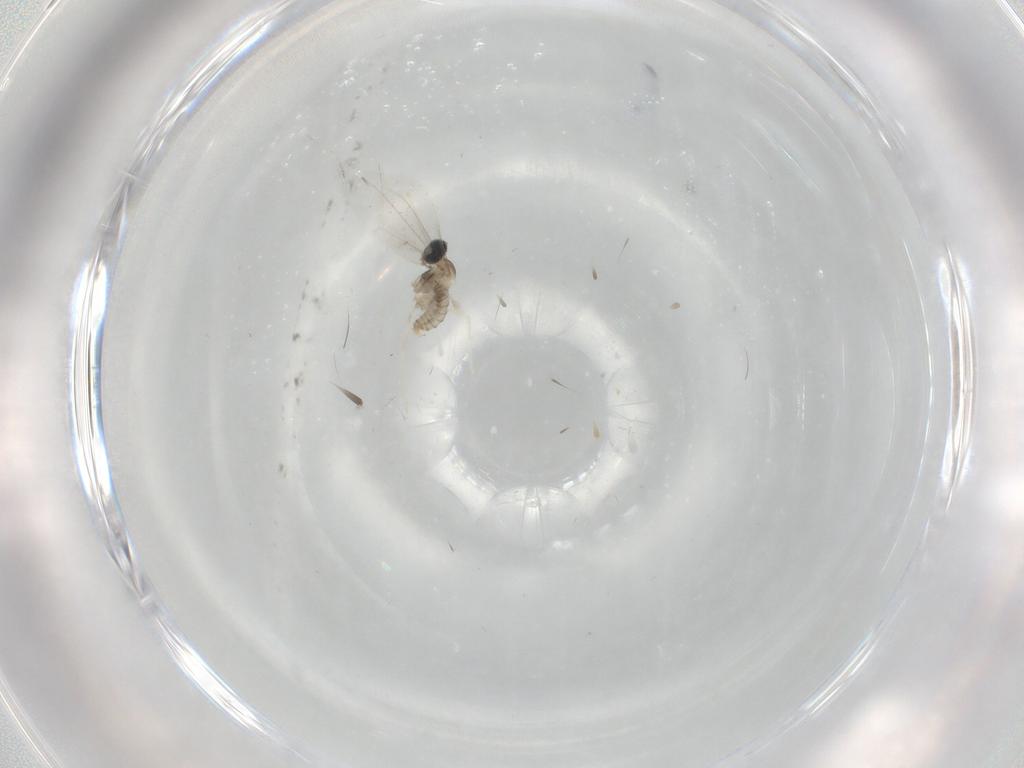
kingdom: Animalia
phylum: Arthropoda
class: Insecta
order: Diptera
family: Cecidomyiidae
